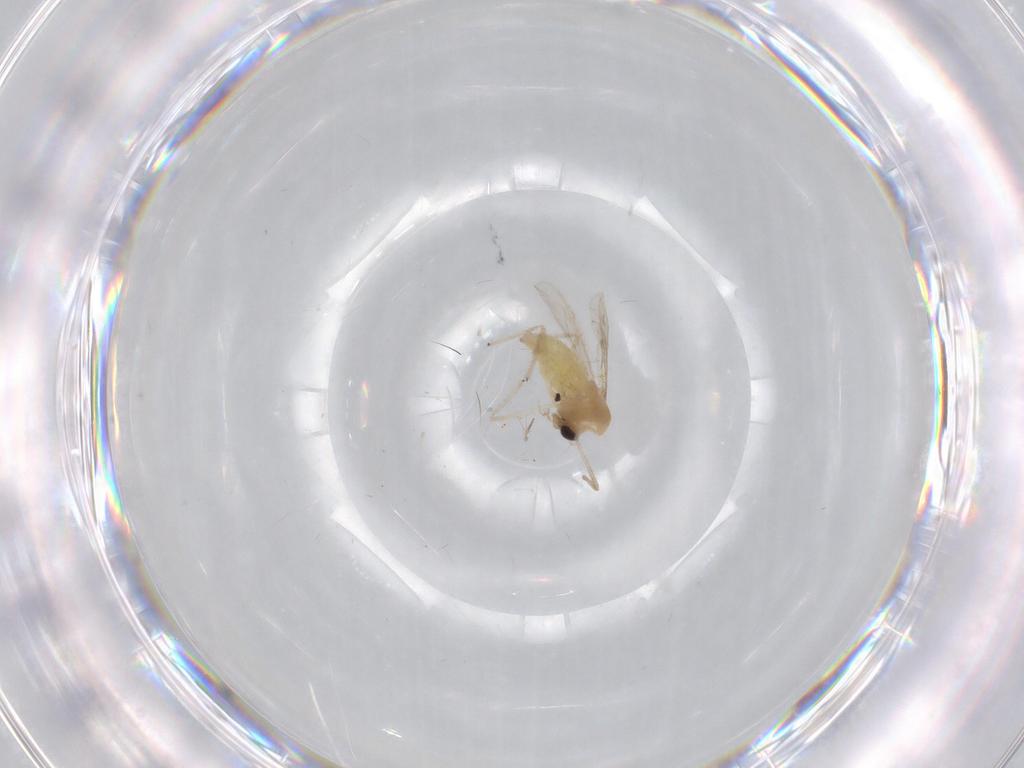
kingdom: Animalia
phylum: Arthropoda
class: Insecta
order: Diptera
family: Chironomidae
